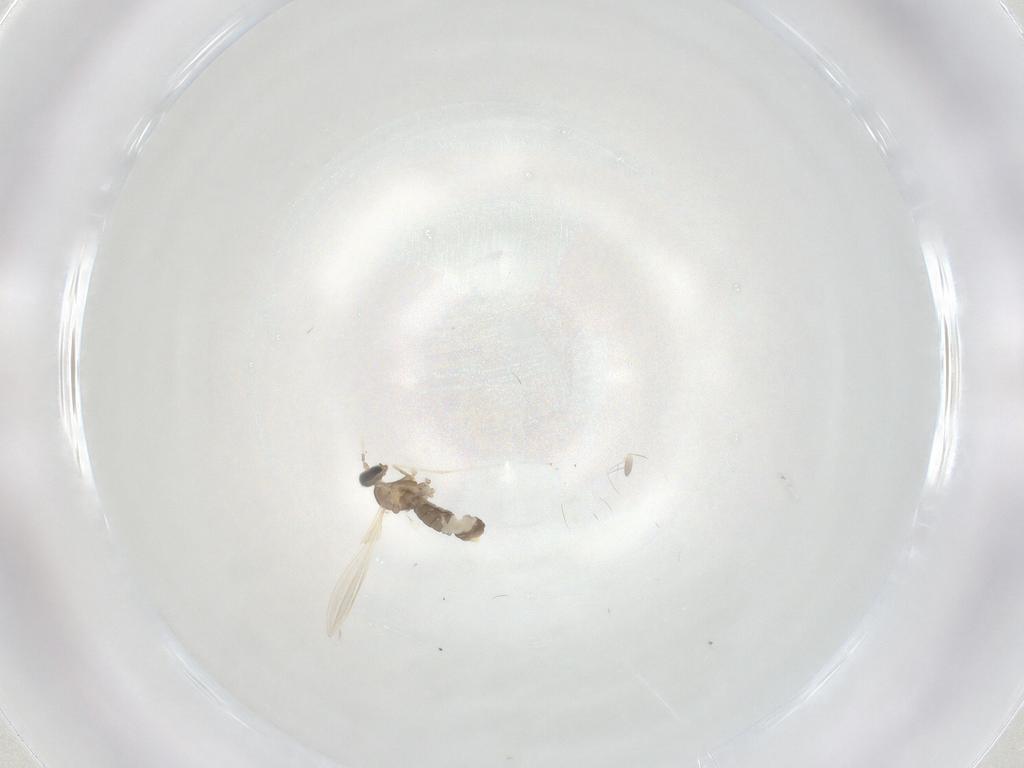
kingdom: Animalia
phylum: Arthropoda
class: Insecta
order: Diptera
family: Cecidomyiidae
